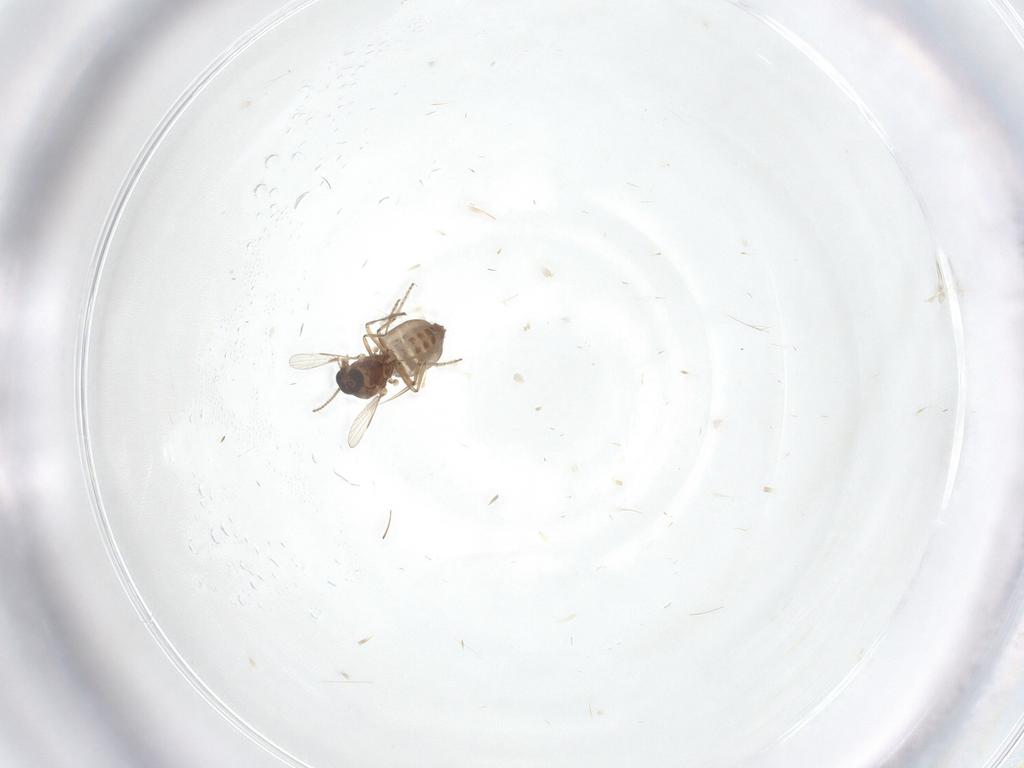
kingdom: Animalia
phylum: Arthropoda
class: Insecta
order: Diptera
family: Ceratopogonidae
